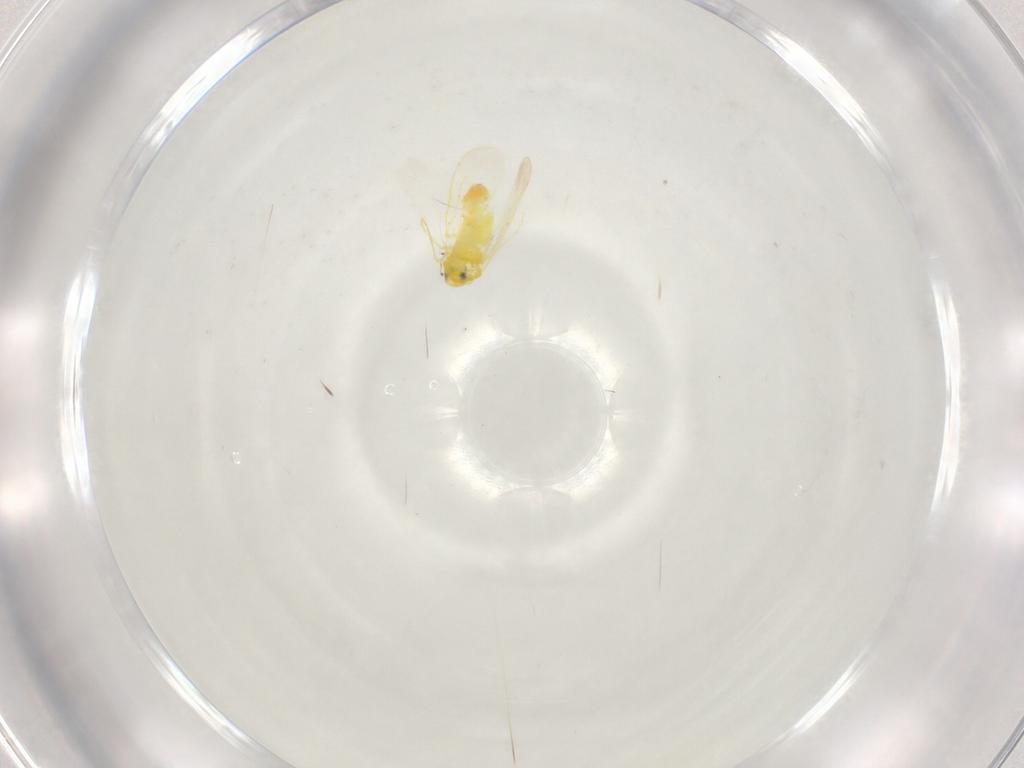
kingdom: Animalia
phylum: Arthropoda
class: Insecta
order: Hemiptera
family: Aleyrodidae
